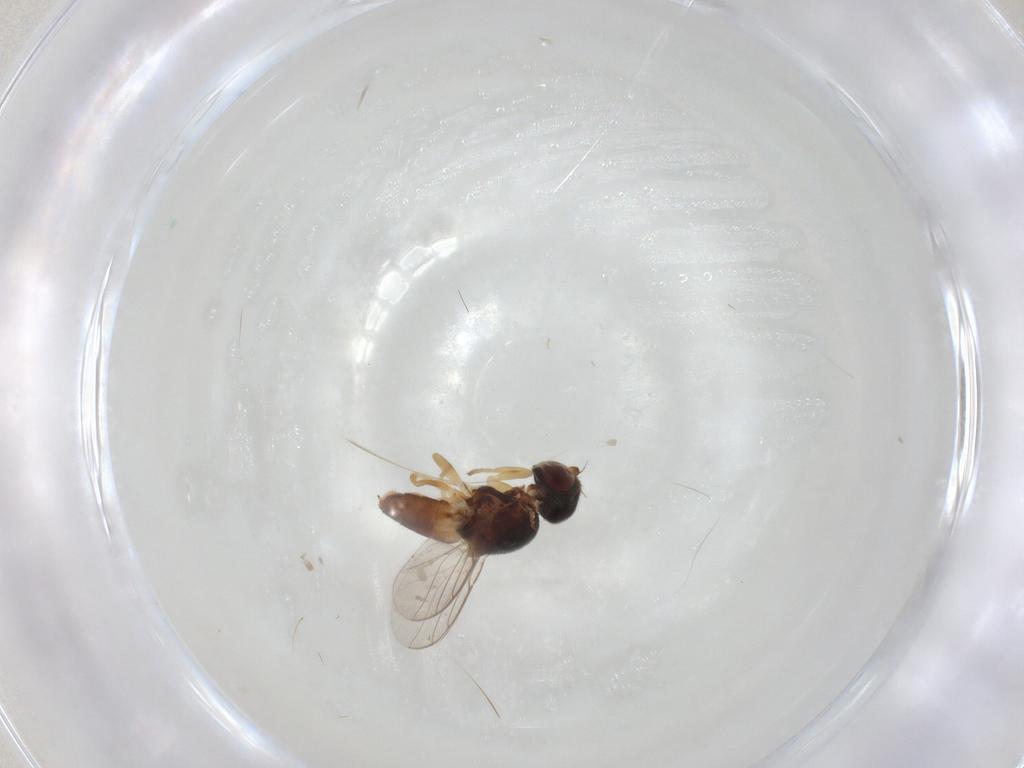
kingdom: Animalia
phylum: Arthropoda
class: Insecta
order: Diptera
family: Chloropidae
